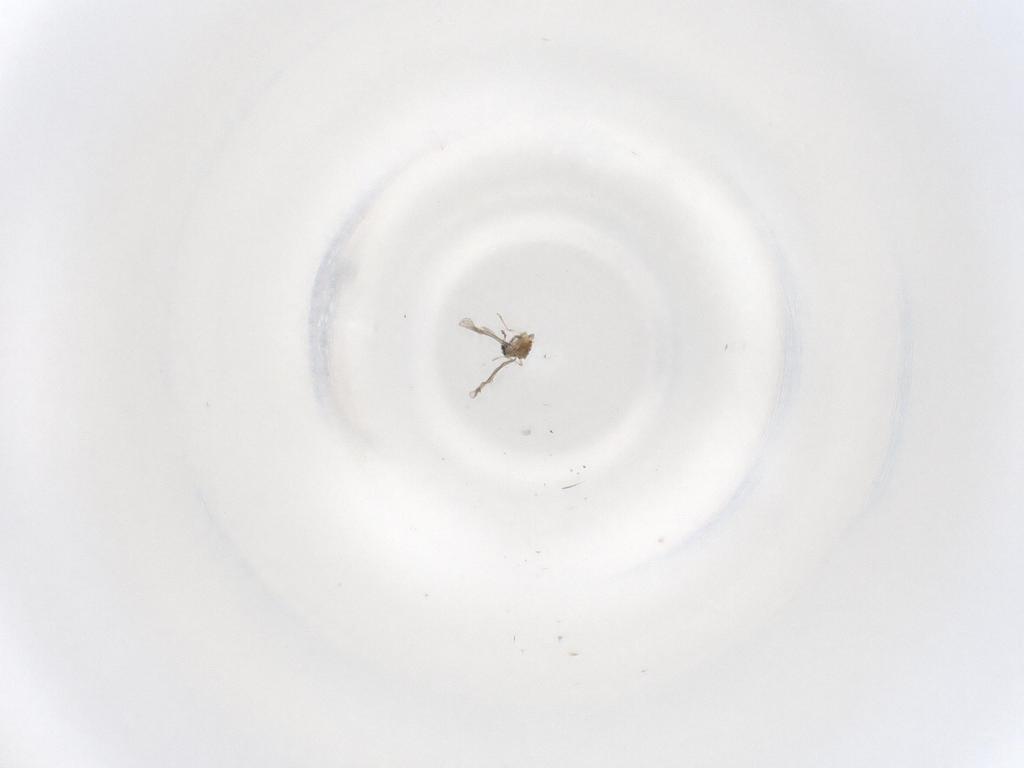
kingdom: Animalia
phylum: Arthropoda
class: Insecta
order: Diptera
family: Cecidomyiidae
